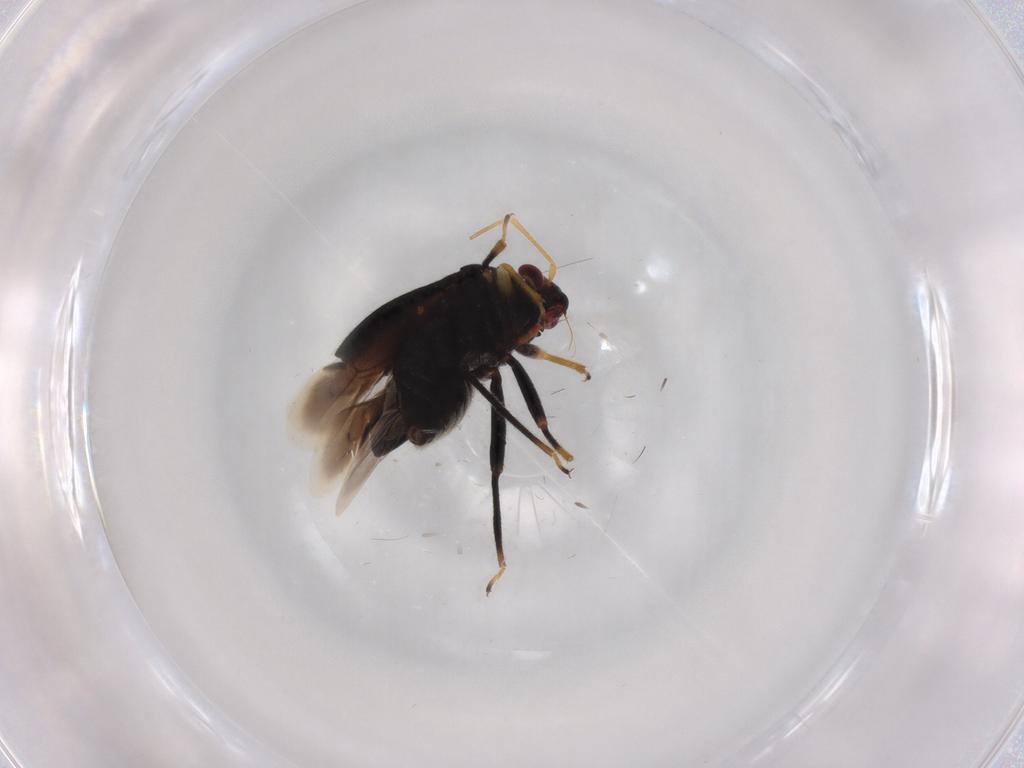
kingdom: Animalia
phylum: Arthropoda
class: Insecta
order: Hemiptera
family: Miridae
